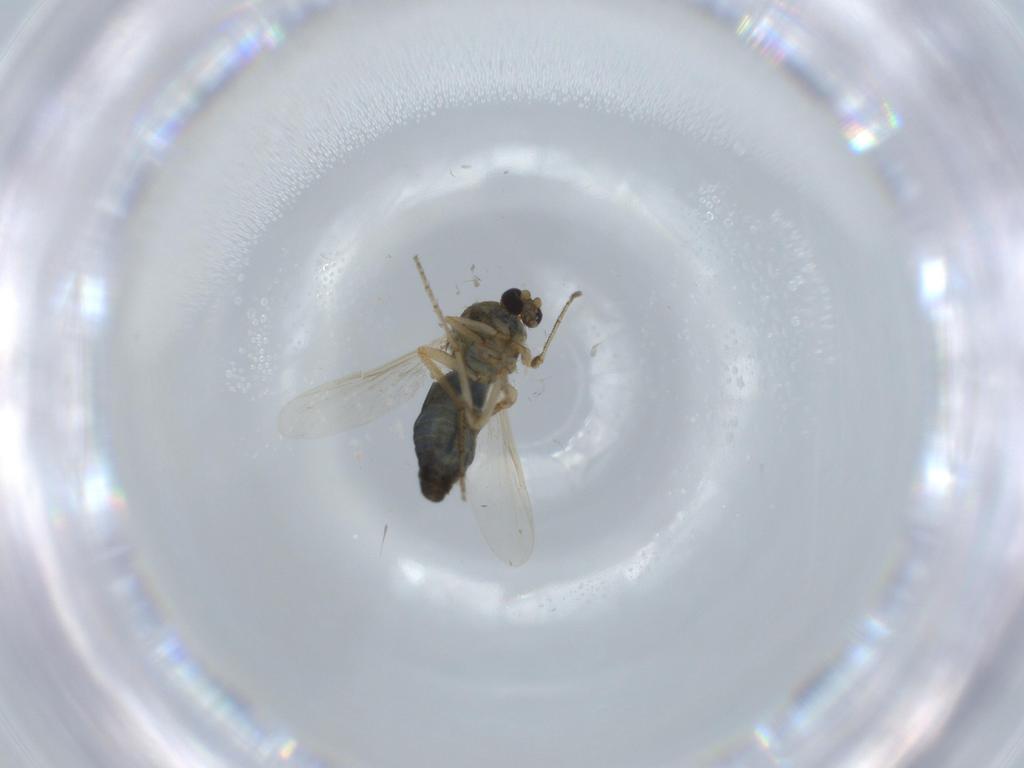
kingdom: Animalia
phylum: Arthropoda
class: Insecta
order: Diptera
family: Ceratopogonidae
